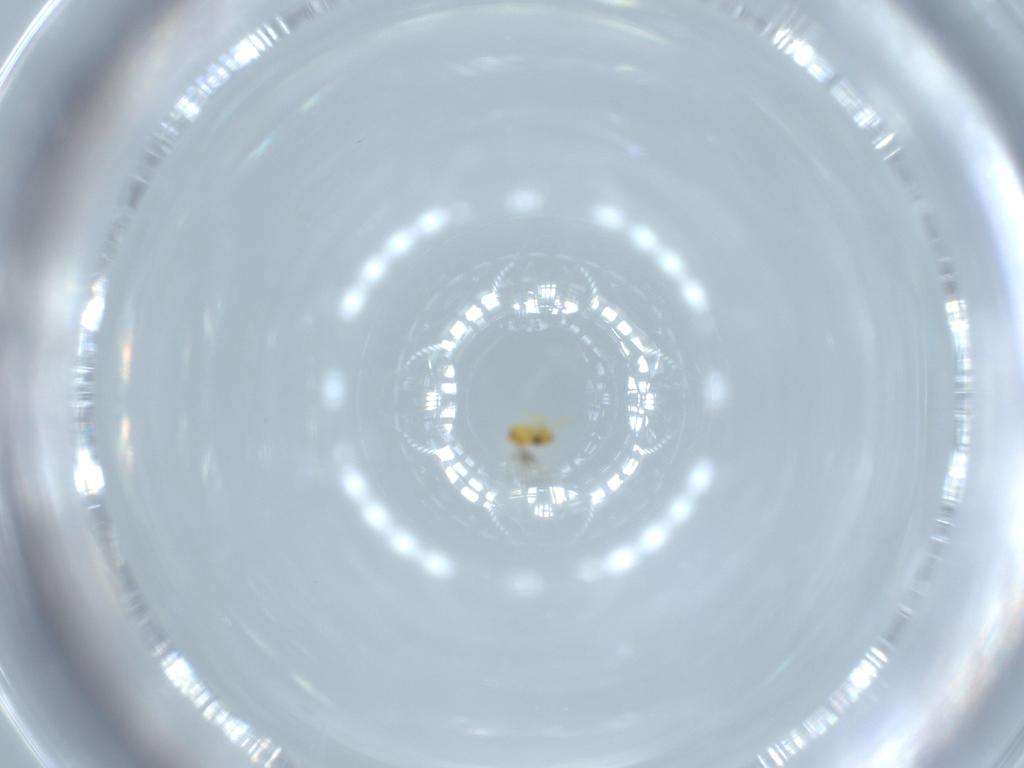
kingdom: Animalia
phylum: Arthropoda
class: Insecta
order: Hymenoptera
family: Trichogrammatidae
